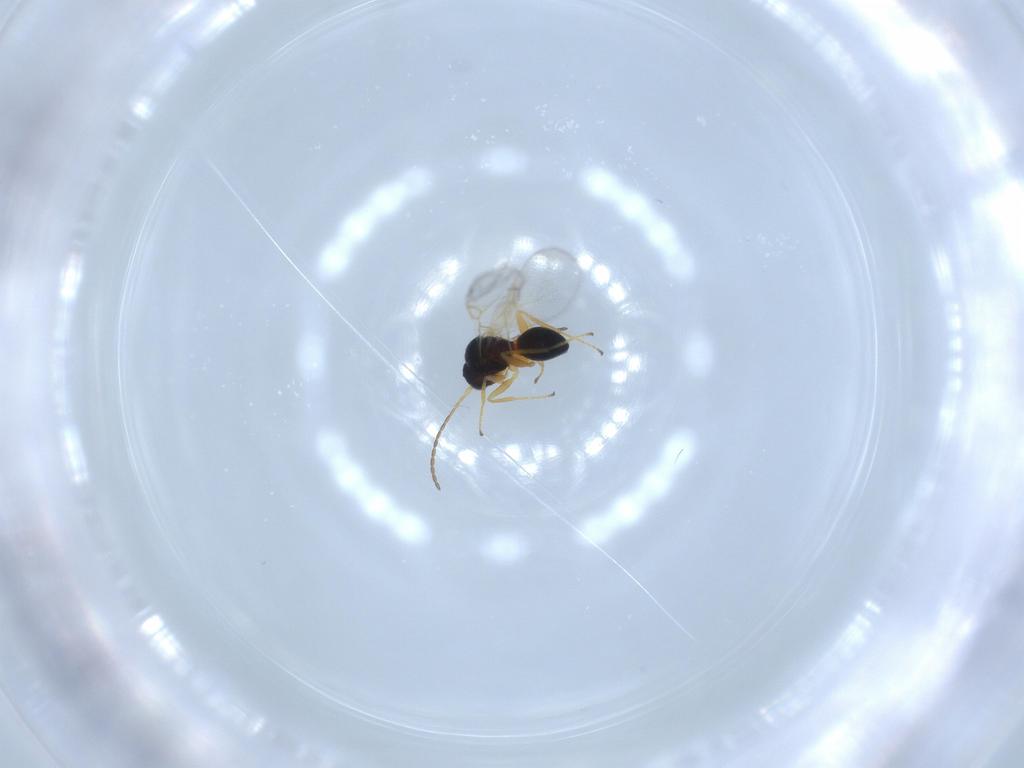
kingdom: Animalia
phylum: Arthropoda
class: Insecta
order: Hymenoptera
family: Figitidae
